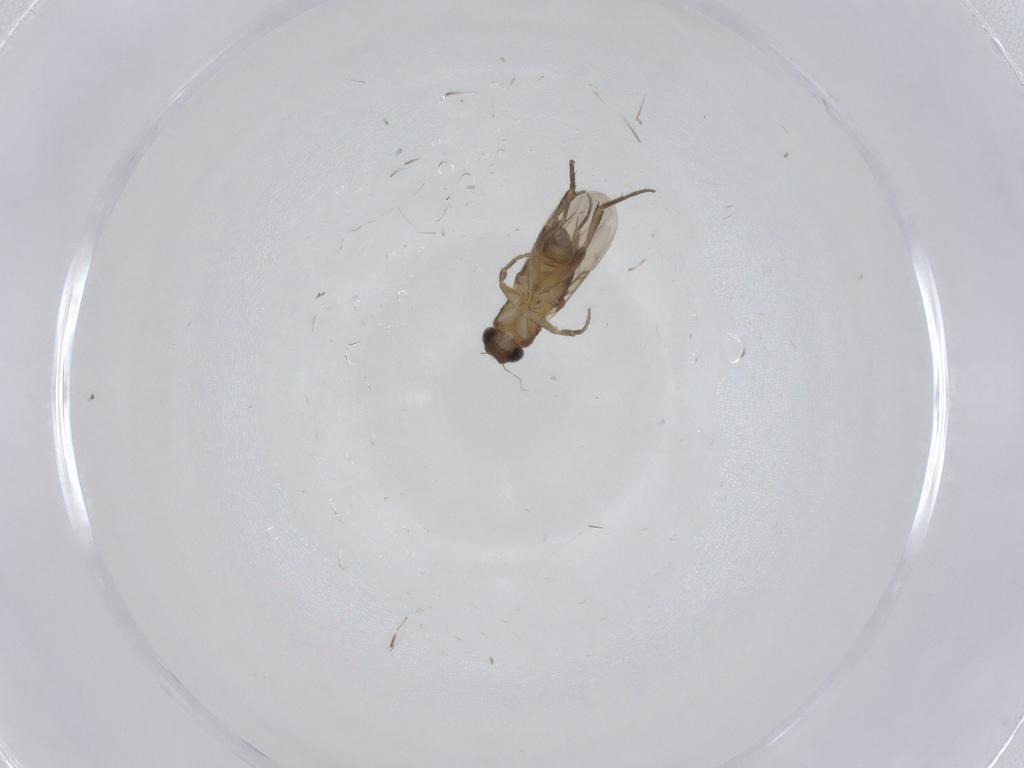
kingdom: Animalia
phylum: Arthropoda
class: Insecta
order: Diptera
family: Phoridae
